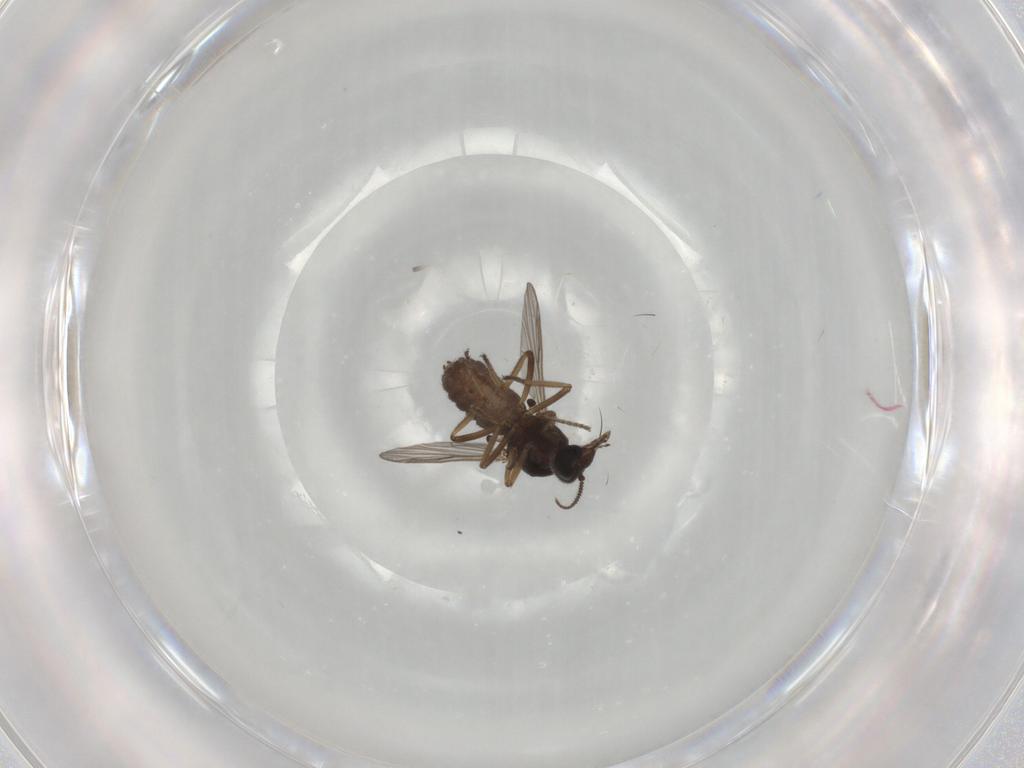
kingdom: Animalia
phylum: Arthropoda
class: Insecta
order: Diptera
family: Ceratopogonidae
